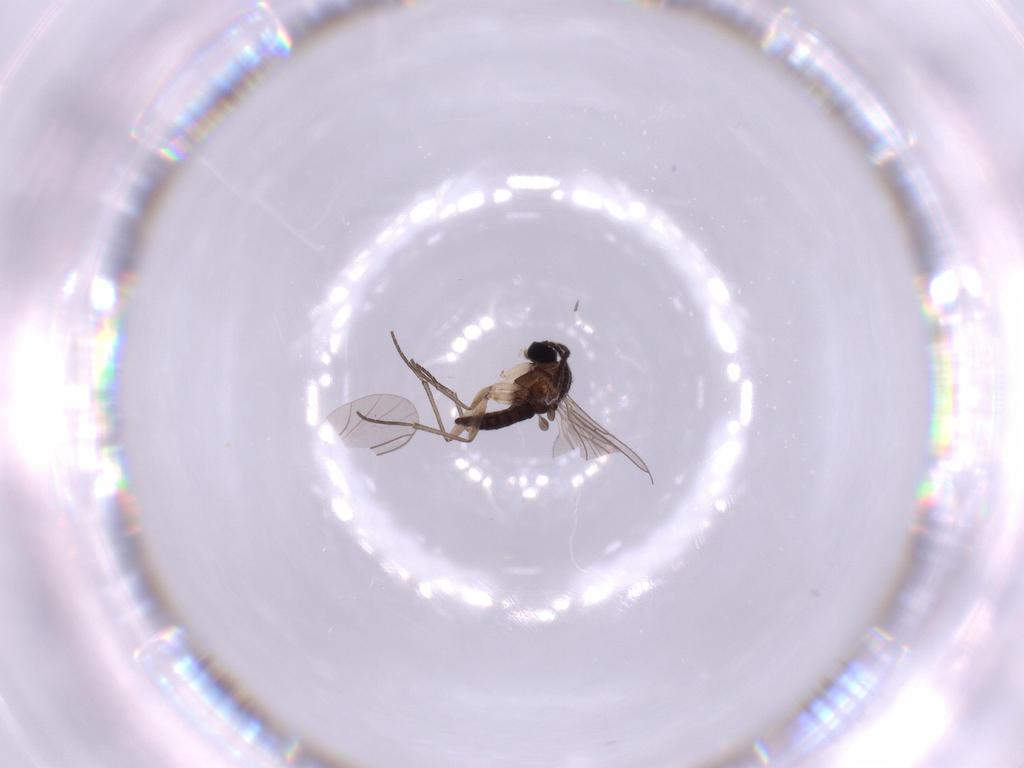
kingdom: Animalia
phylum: Arthropoda
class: Insecta
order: Diptera
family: Sciaridae
